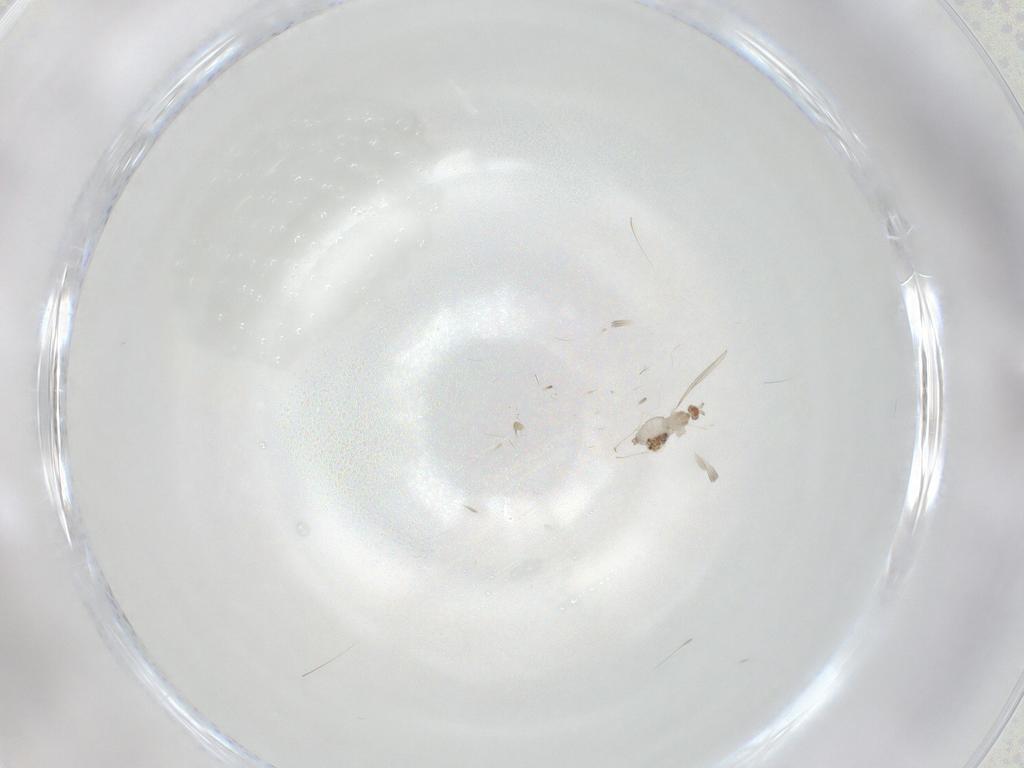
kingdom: Animalia
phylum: Arthropoda
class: Insecta
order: Diptera
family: Cecidomyiidae
